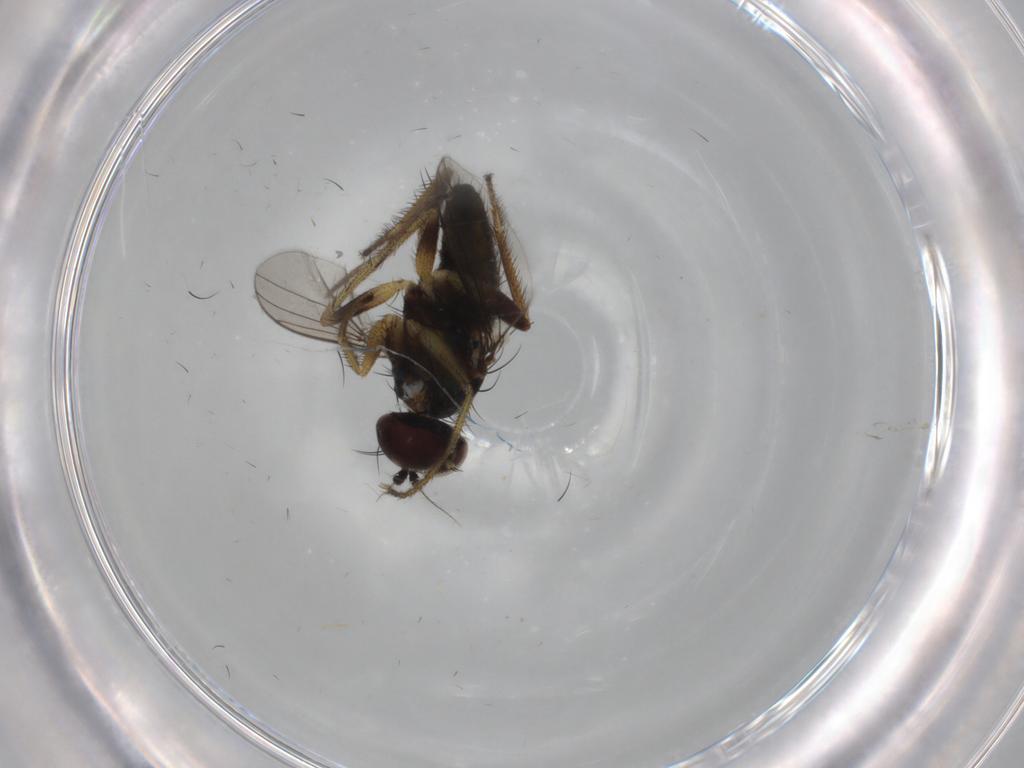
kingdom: Animalia
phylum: Arthropoda
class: Insecta
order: Diptera
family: Dolichopodidae
